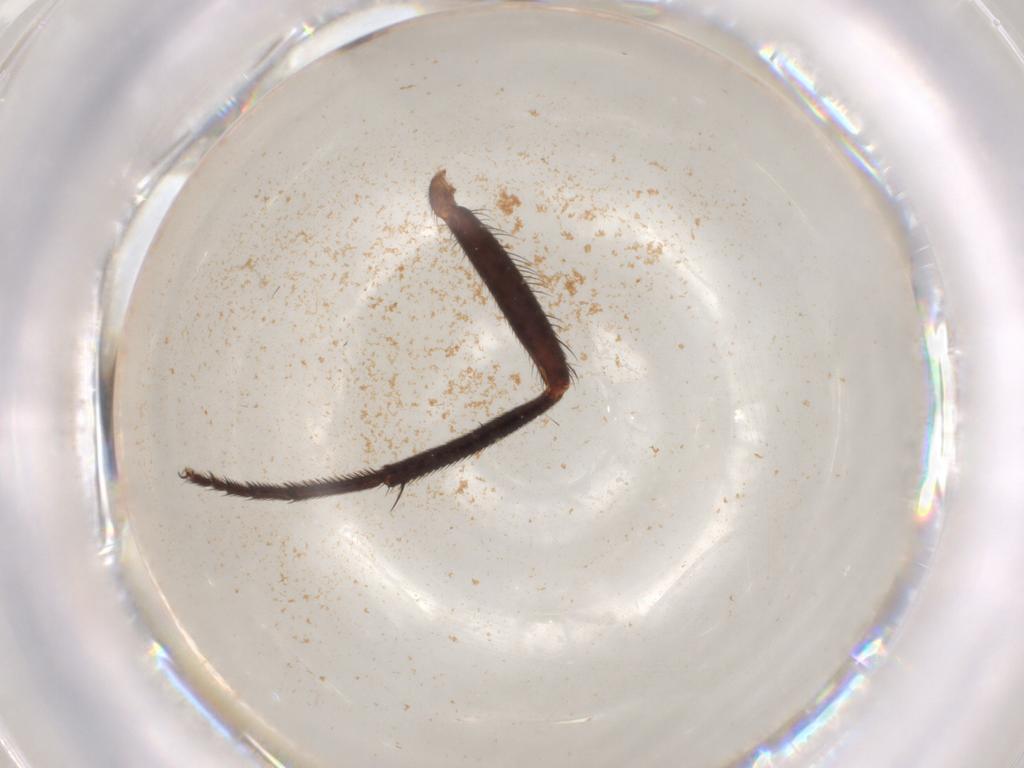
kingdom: Animalia
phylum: Arthropoda
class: Insecta
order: Diptera
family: Muscidae
